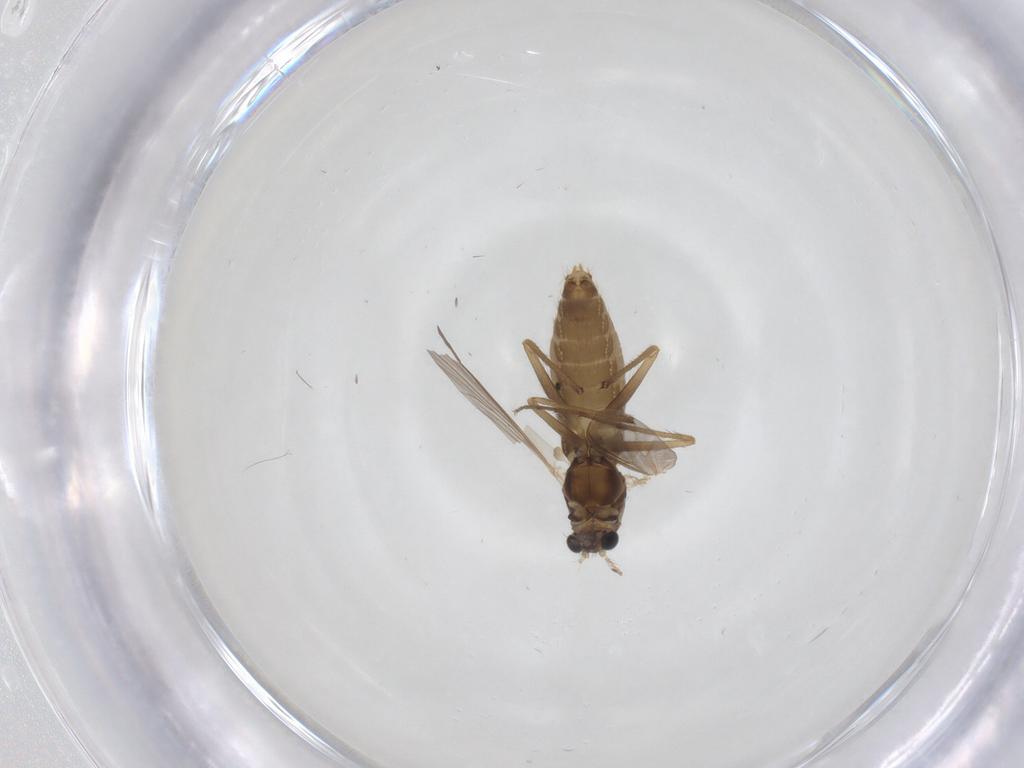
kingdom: Animalia
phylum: Arthropoda
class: Insecta
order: Diptera
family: Chironomidae
